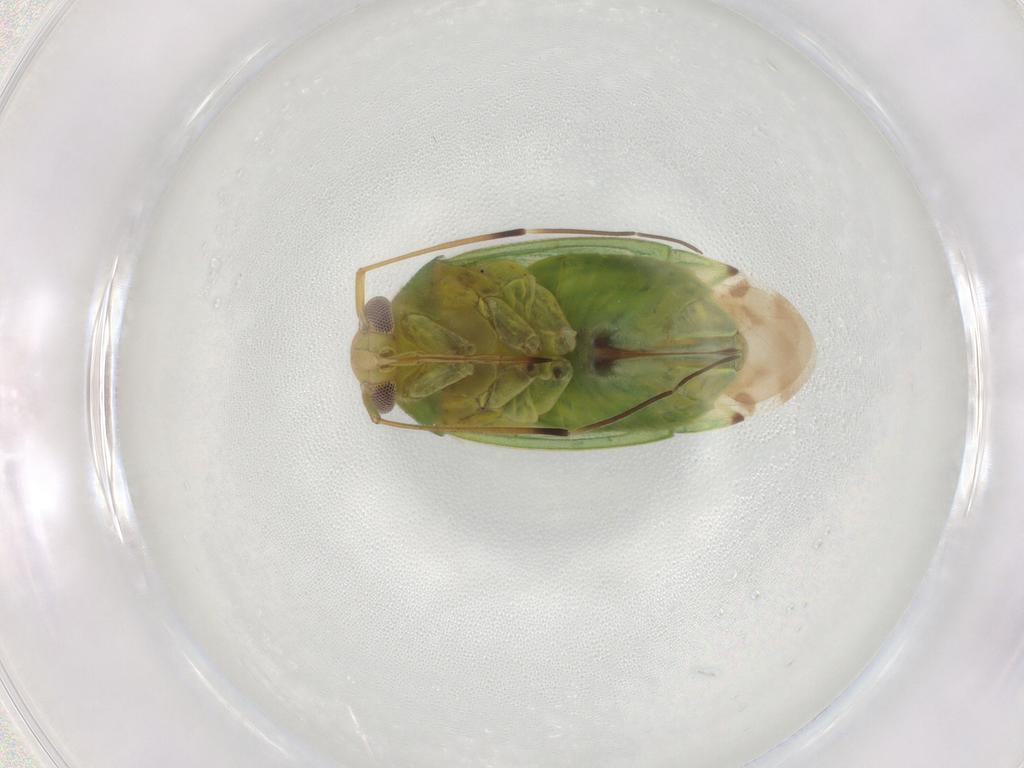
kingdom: Animalia
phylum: Arthropoda
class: Insecta
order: Hemiptera
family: Miridae
